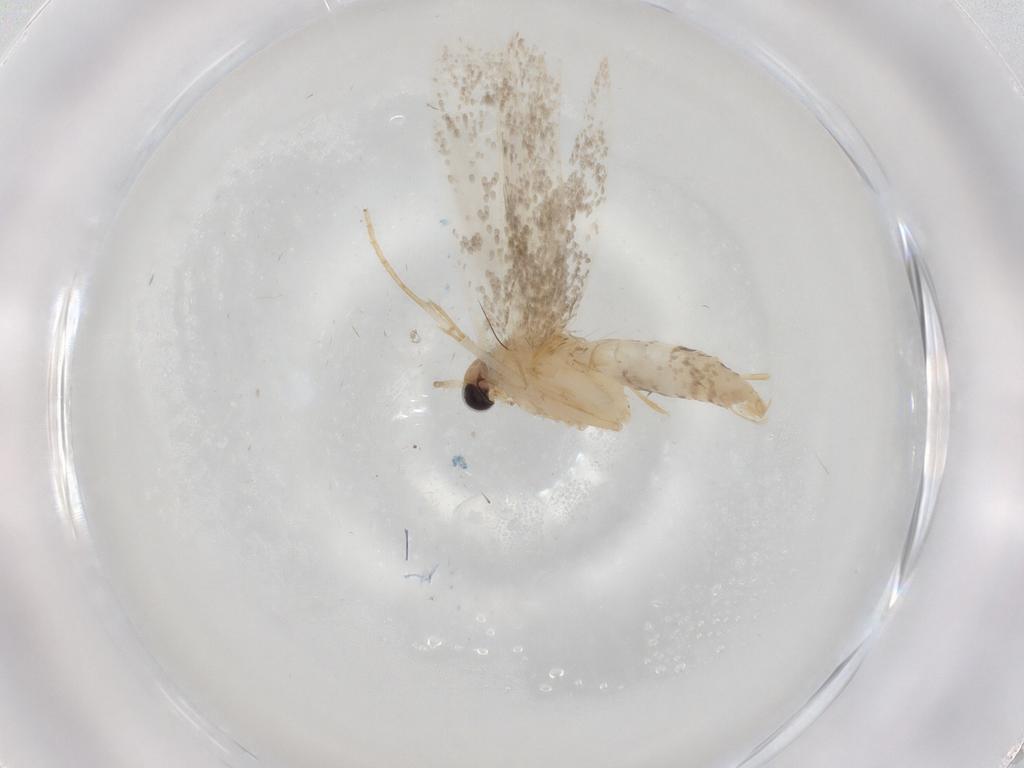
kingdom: Animalia
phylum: Arthropoda
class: Insecta
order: Lepidoptera
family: Tineidae
